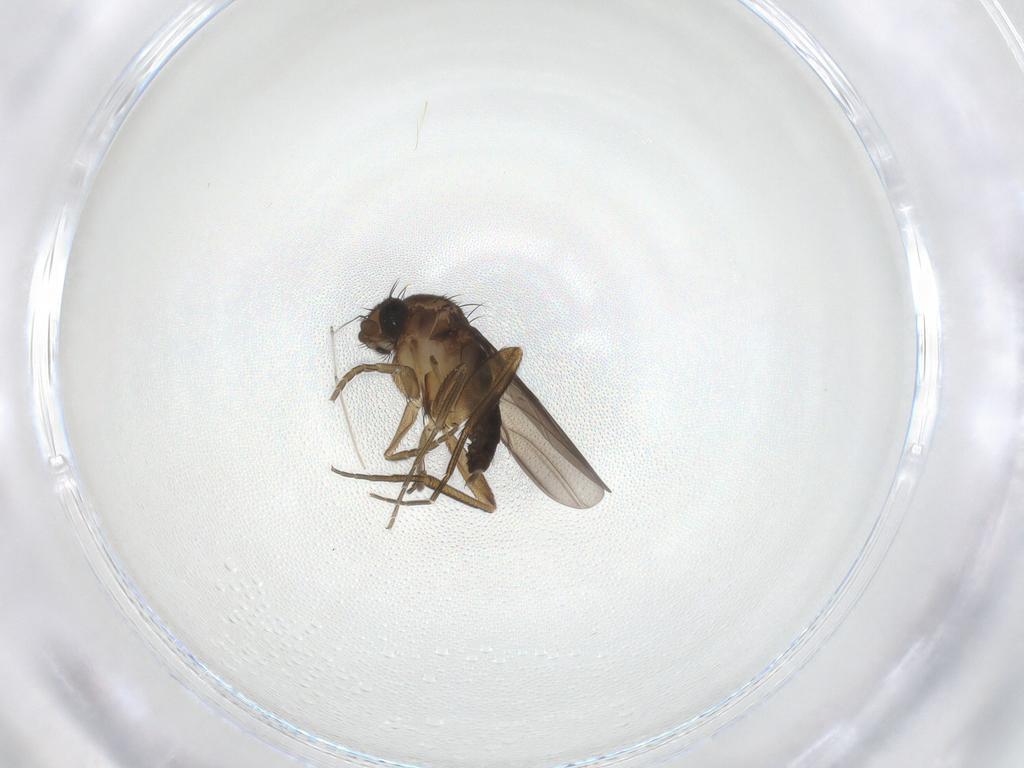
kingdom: Animalia
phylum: Arthropoda
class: Insecta
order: Diptera
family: Phoridae
